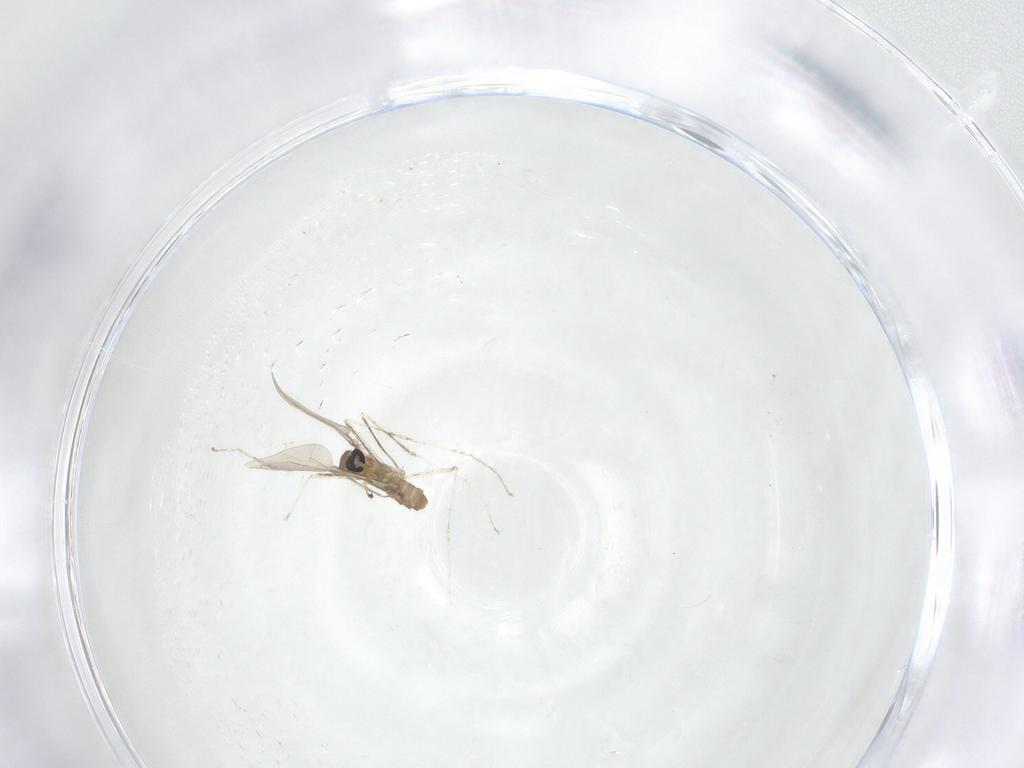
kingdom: Animalia
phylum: Arthropoda
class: Insecta
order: Diptera
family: Cecidomyiidae
